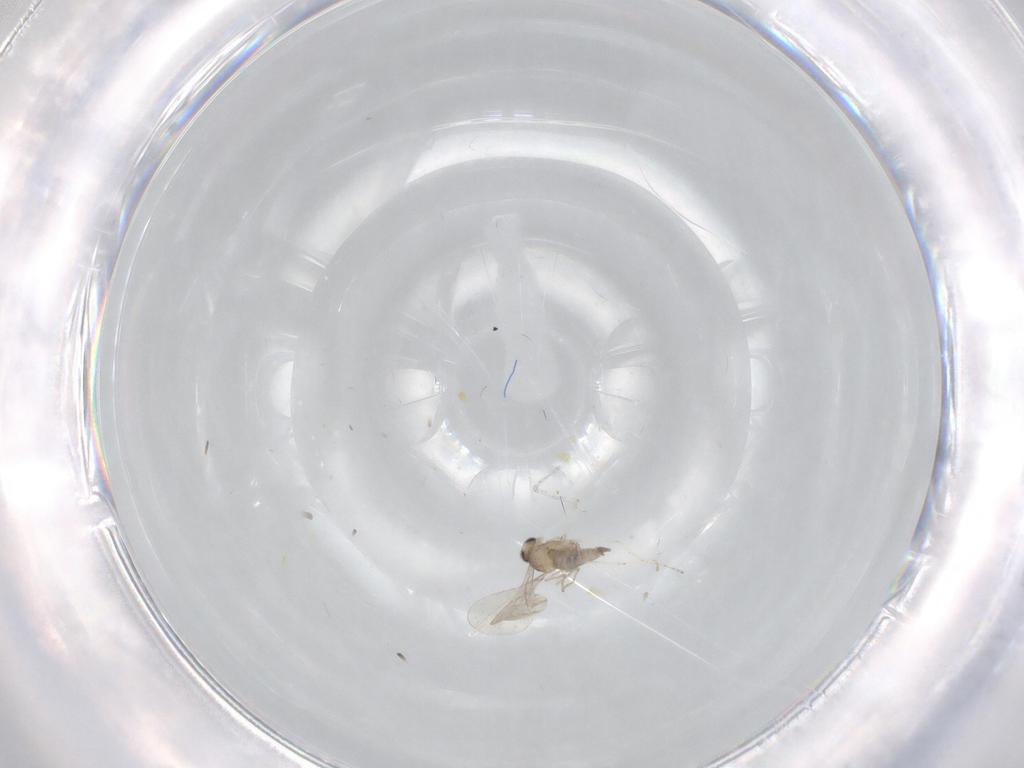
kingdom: Animalia
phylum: Arthropoda
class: Insecta
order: Diptera
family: Cecidomyiidae
